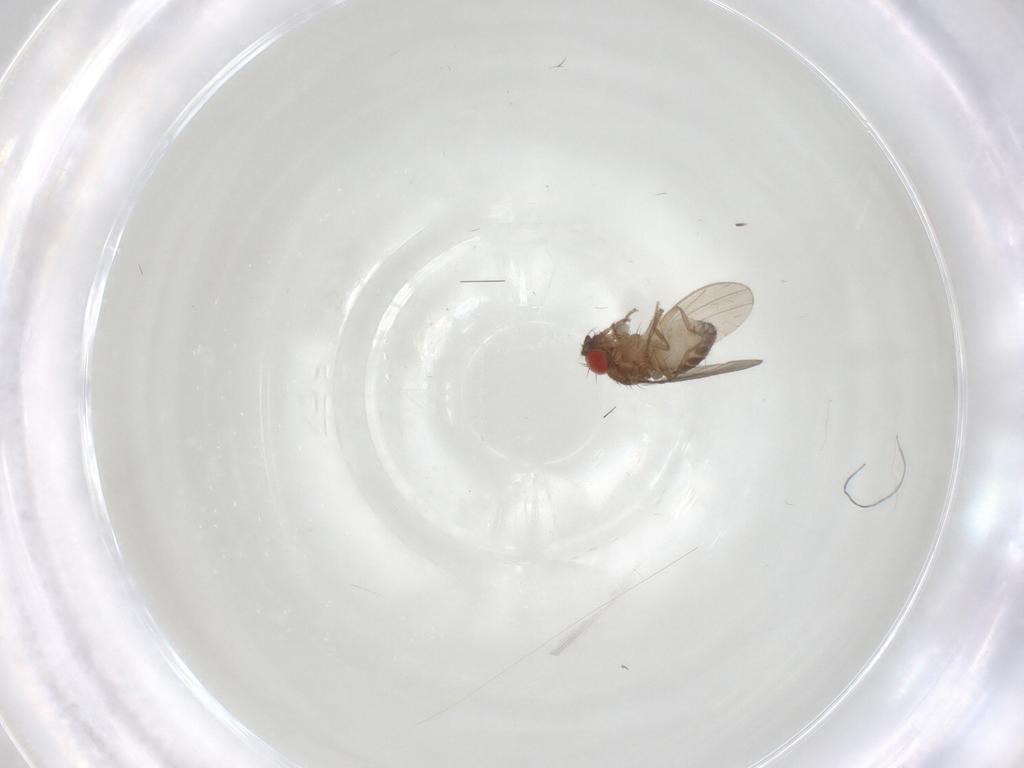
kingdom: Animalia
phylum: Arthropoda
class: Insecta
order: Diptera
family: Drosophilidae
